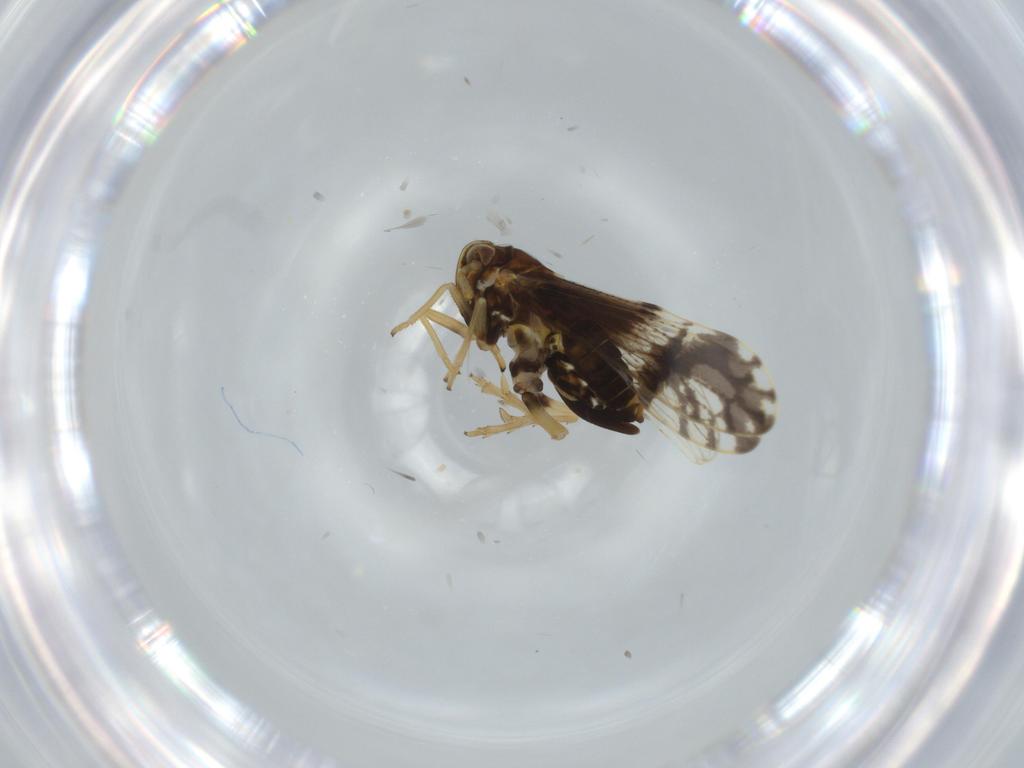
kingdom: Animalia
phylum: Arthropoda
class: Insecta
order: Hemiptera
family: Delphacidae
